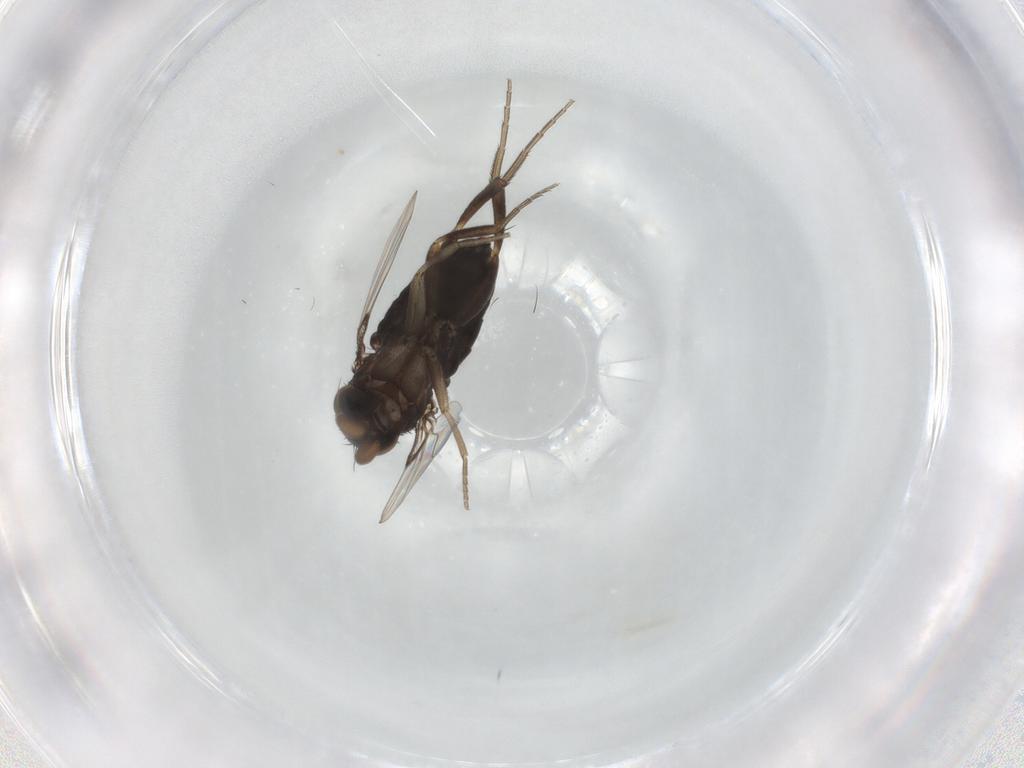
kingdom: Animalia
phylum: Arthropoda
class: Insecta
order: Diptera
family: Phoridae
